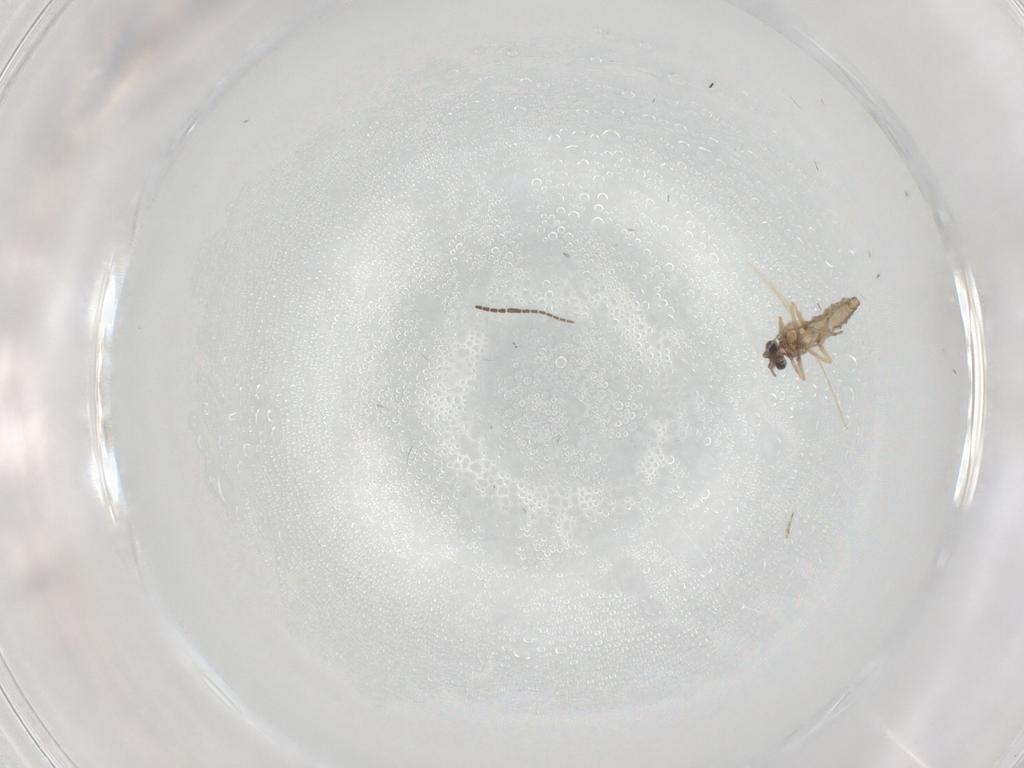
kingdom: Animalia
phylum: Arthropoda
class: Insecta
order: Diptera
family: Ceratopogonidae
